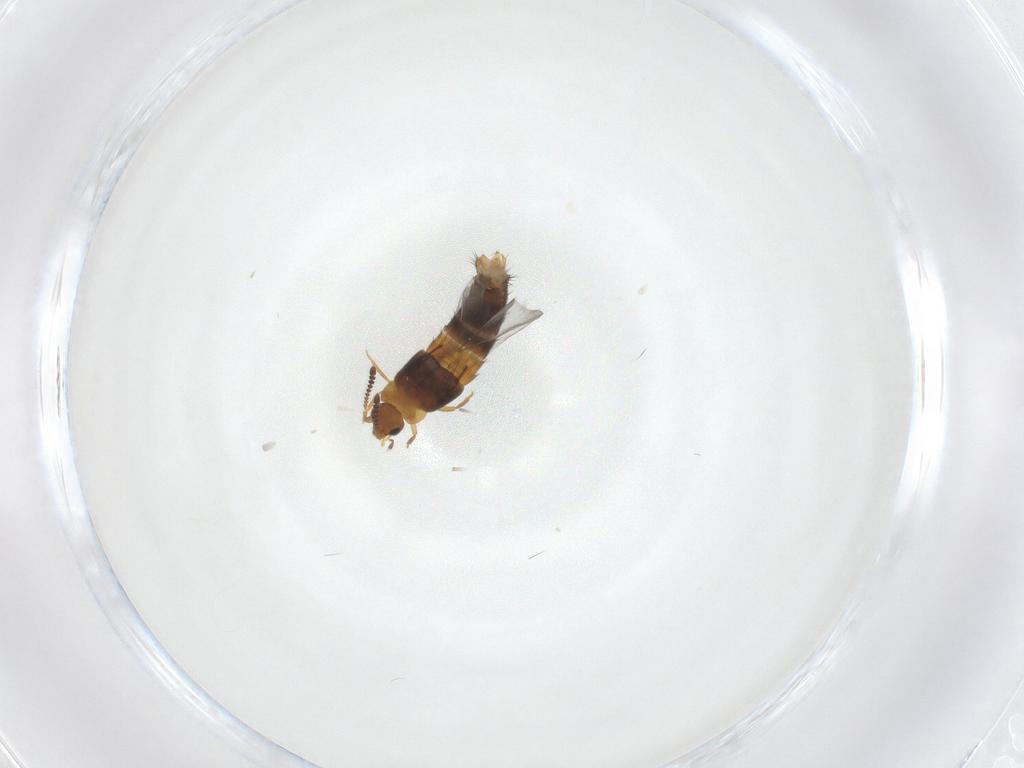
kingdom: Animalia
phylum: Arthropoda
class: Insecta
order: Coleoptera
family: Staphylinidae
